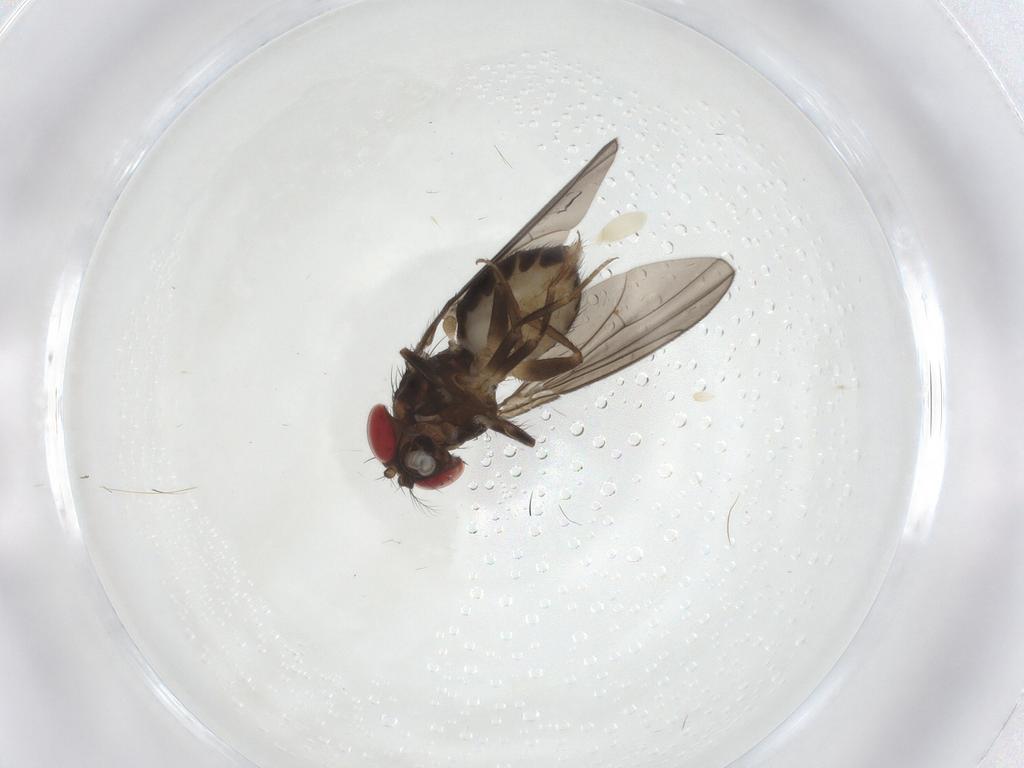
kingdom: Animalia
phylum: Arthropoda
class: Insecta
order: Diptera
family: Drosophilidae
